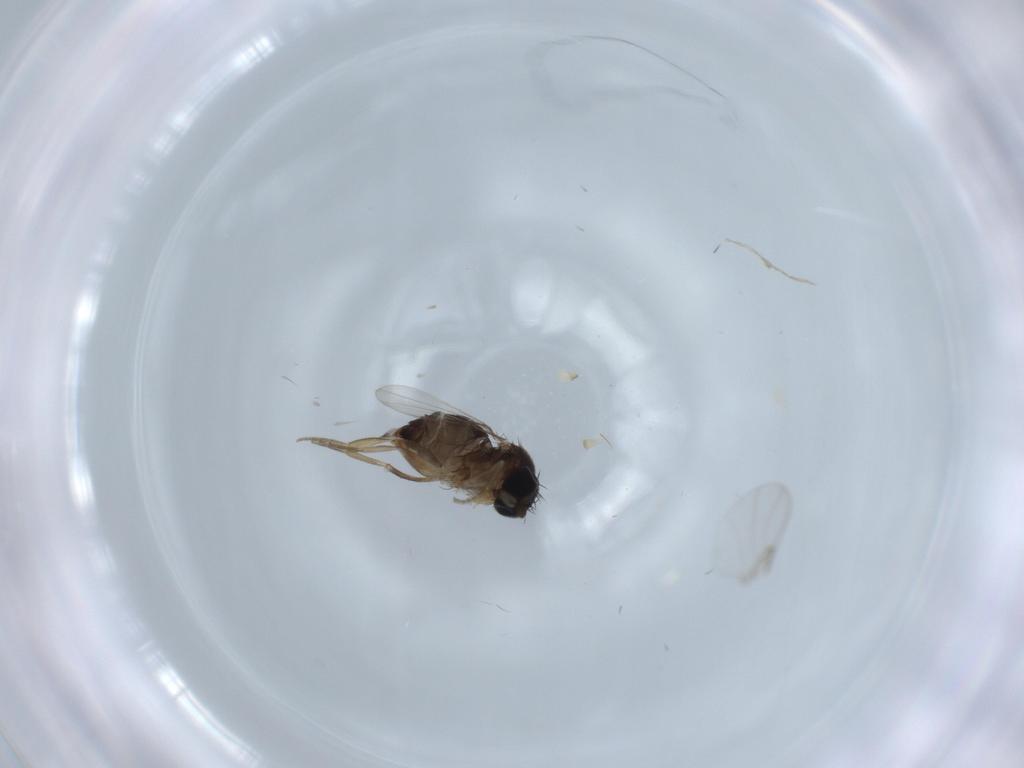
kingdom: Animalia
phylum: Arthropoda
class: Insecta
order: Diptera
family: Phoridae
